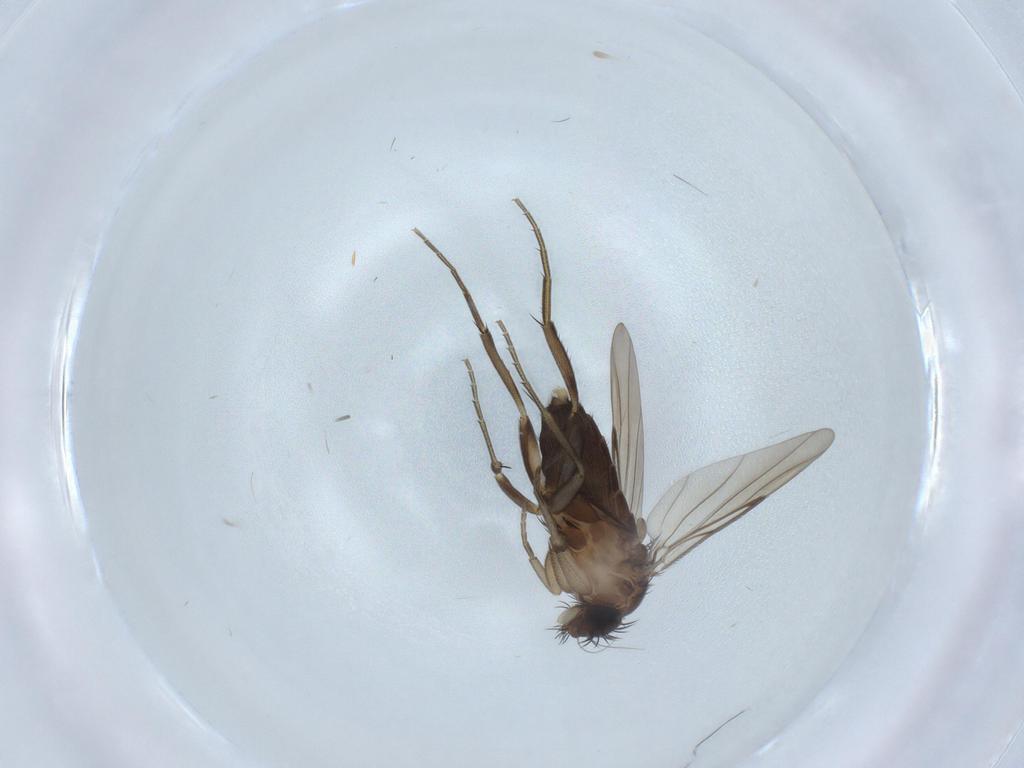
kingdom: Animalia
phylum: Arthropoda
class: Insecta
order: Diptera
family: Phoridae
